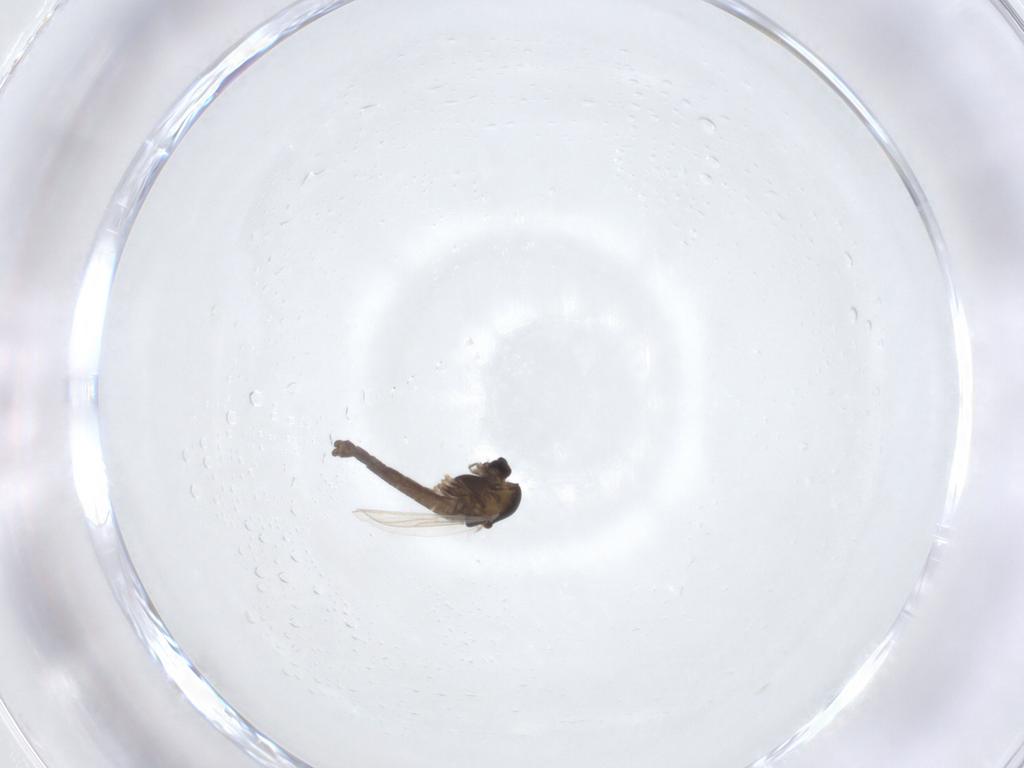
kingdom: Animalia
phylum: Arthropoda
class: Insecta
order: Diptera
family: Chironomidae
